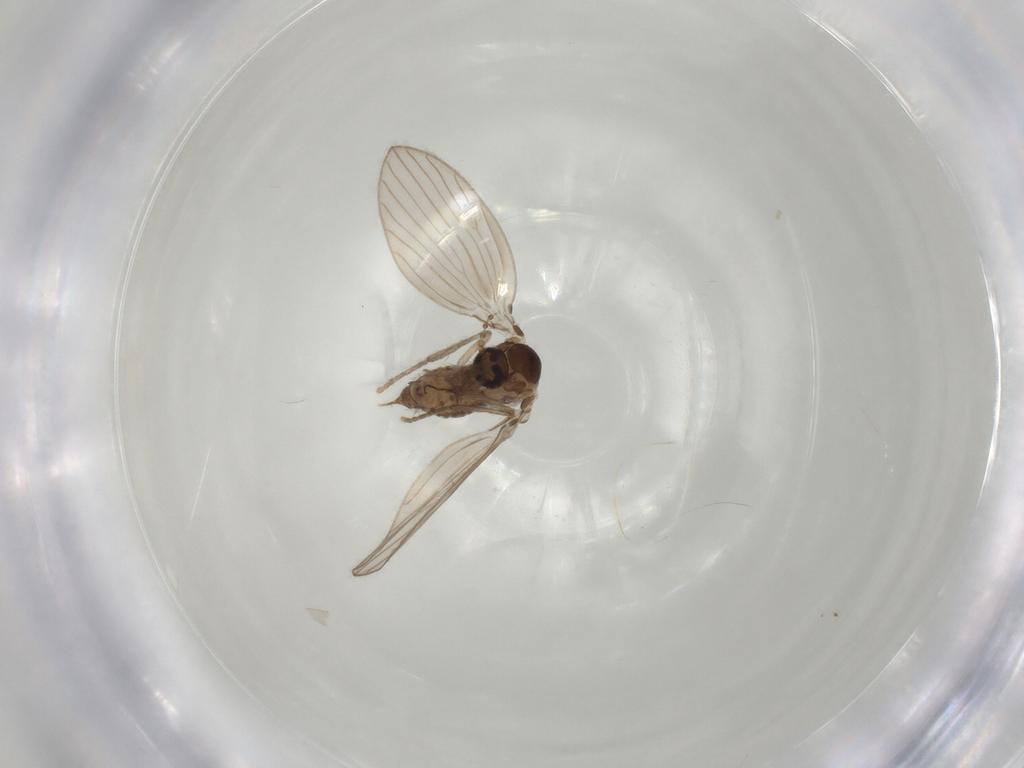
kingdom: Animalia
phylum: Arthropoda
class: Insecta
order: Diptera
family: Psychodidae
